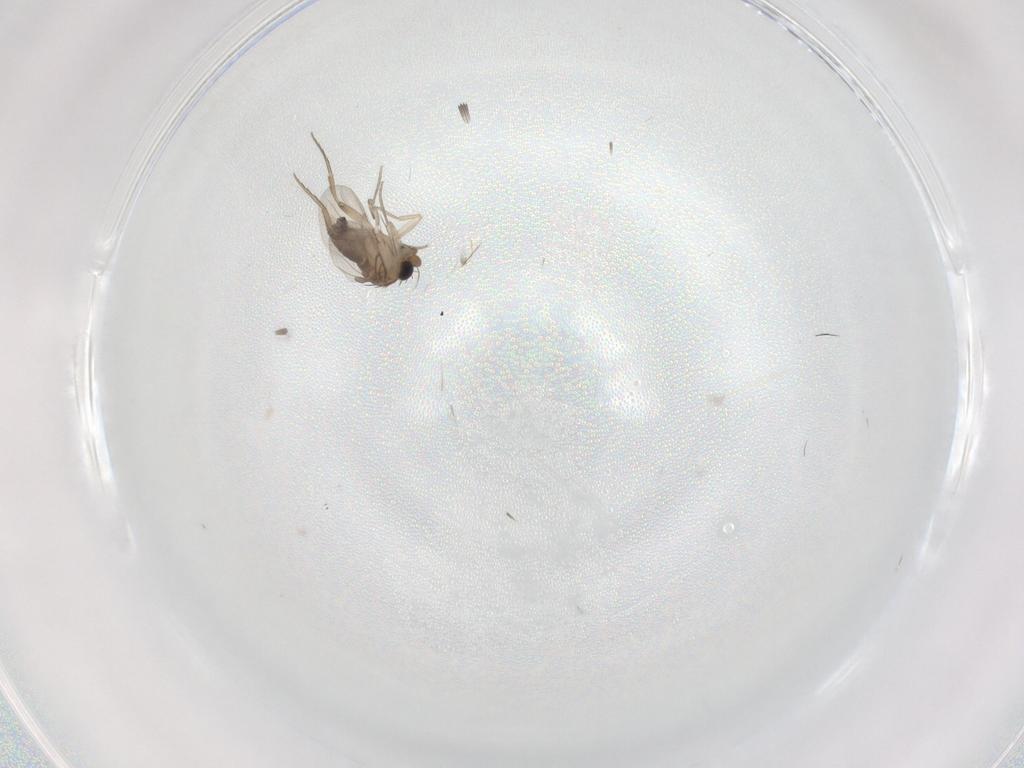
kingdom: Animalia
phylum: Arthropoda
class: Insecta
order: Diptera
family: Phoridae
